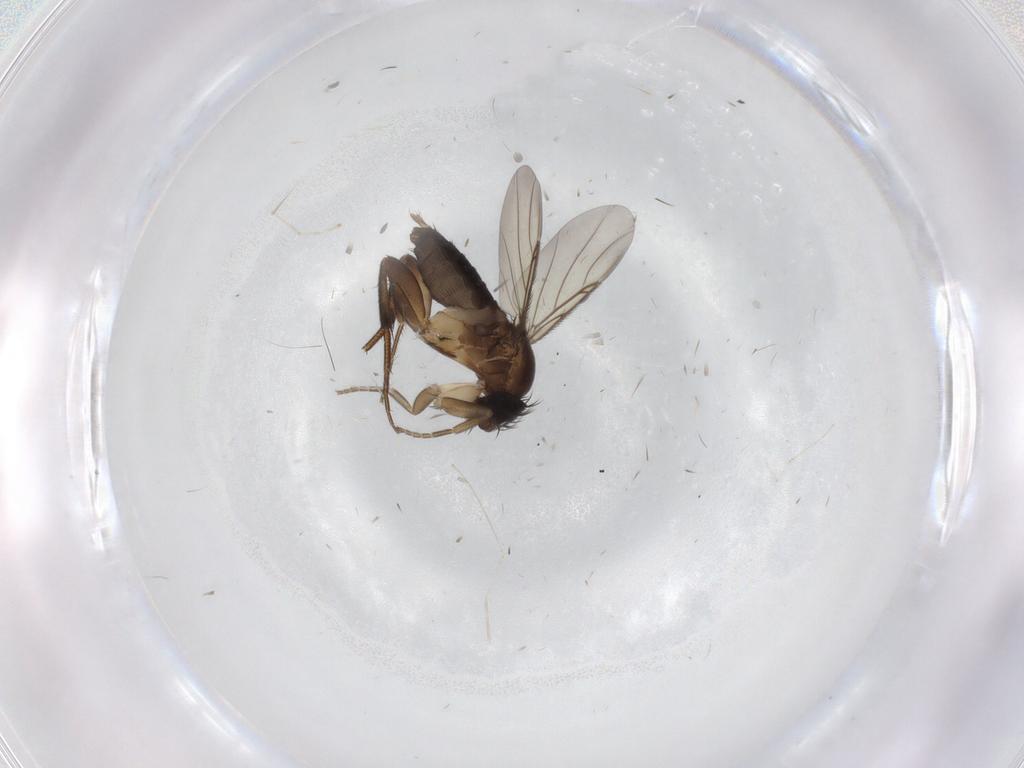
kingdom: Animalia
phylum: Arthropoda
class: Insecta
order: Diptera
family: Phoridae
